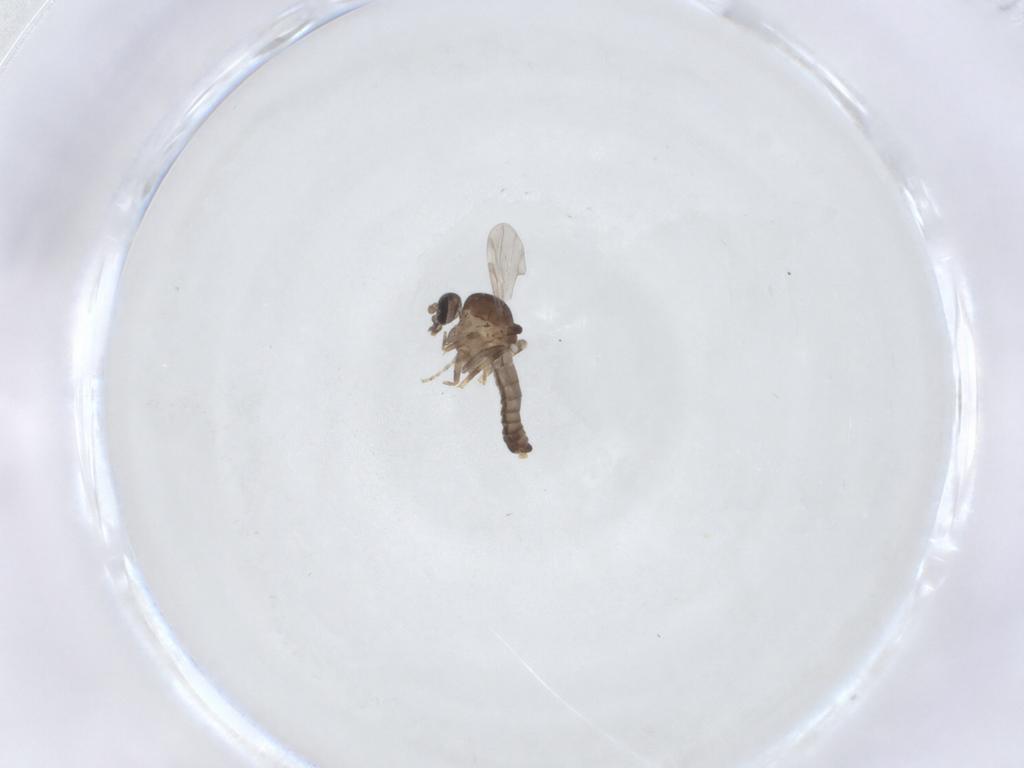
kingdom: Animalia
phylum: Arthropoda
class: Insecta
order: Diptera
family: Ceratopogonidae
